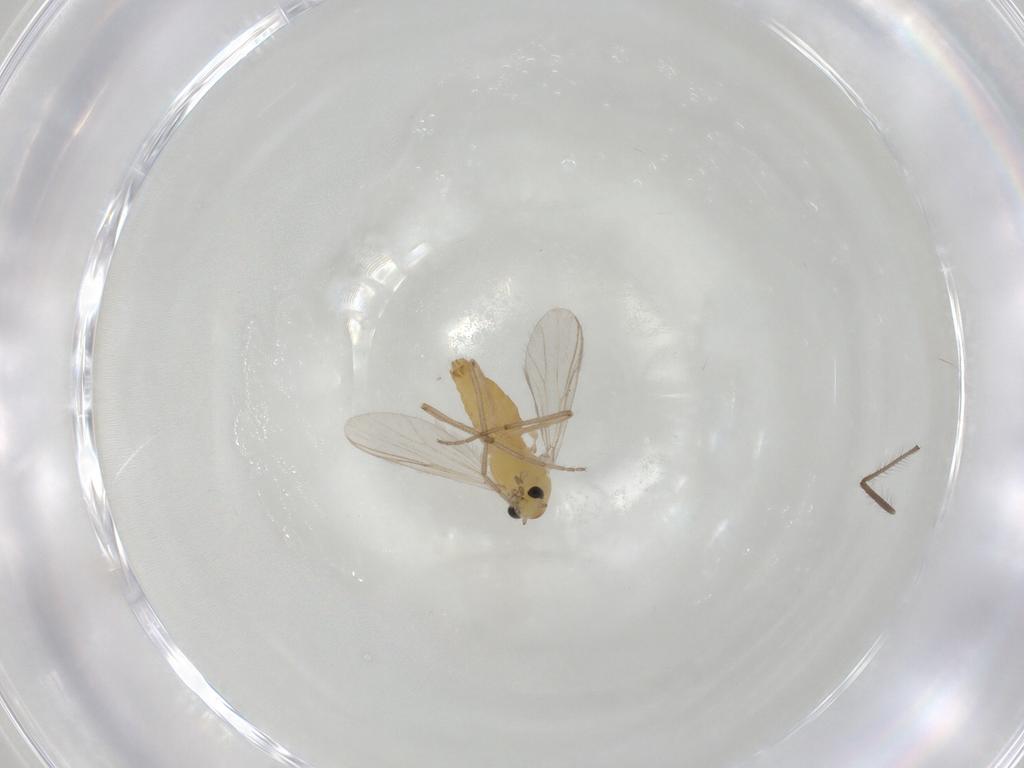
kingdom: Animalia
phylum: Arthropoda
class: Insecta
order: Diptera
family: Chironomidae
